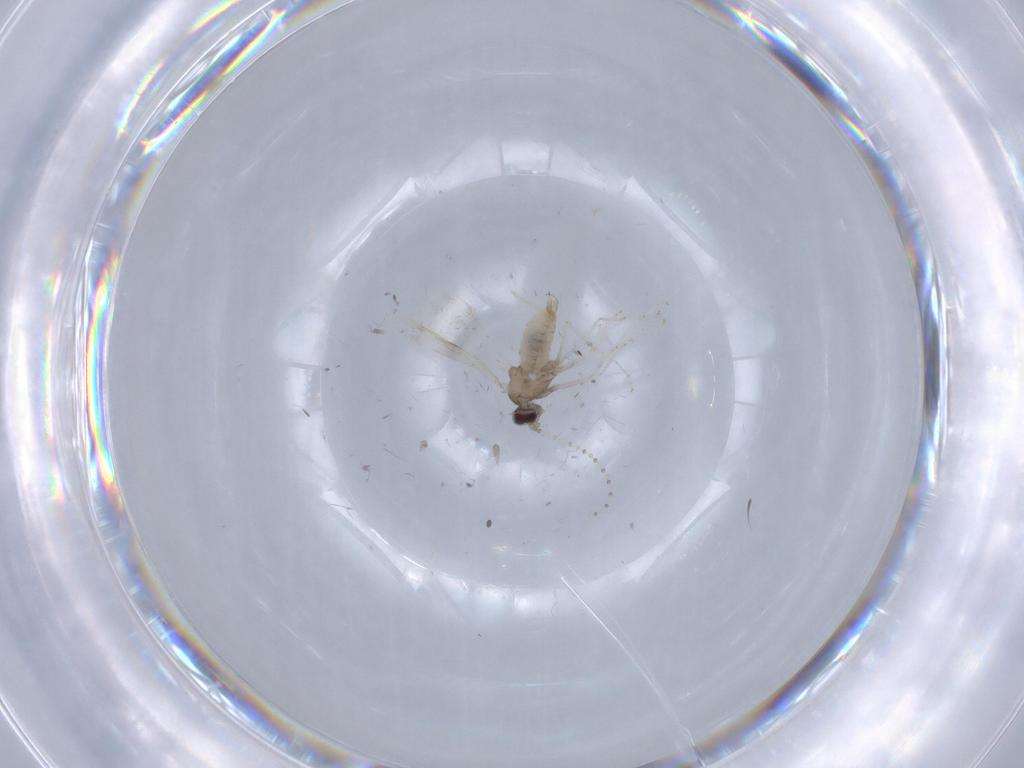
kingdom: Animalia
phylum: Arthropoda
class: Insecta
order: Diptera
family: Cecidomyiidae
